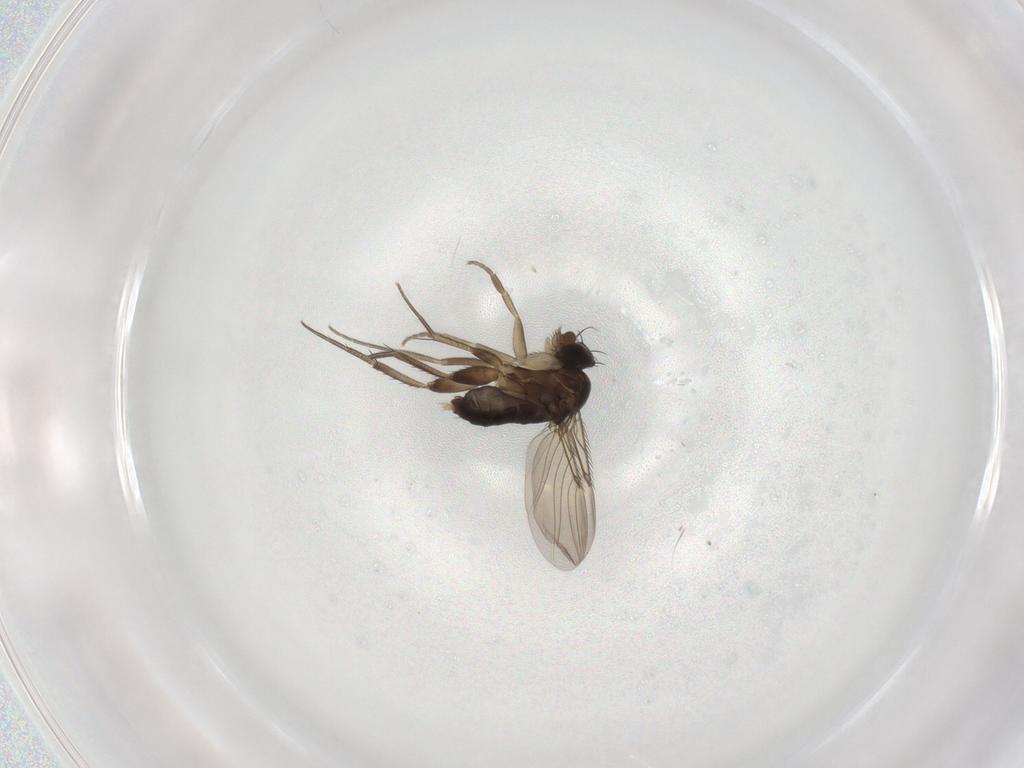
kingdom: Animalia
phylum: Arthropoda
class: Insecta
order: Diptera
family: Phoridae
